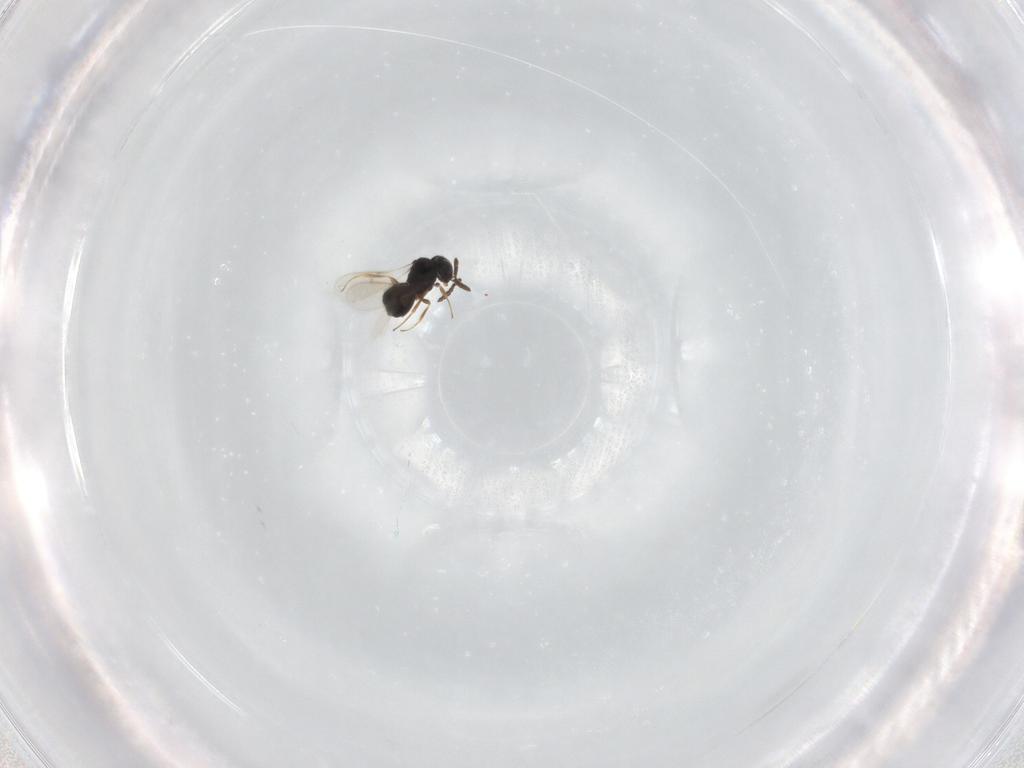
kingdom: Animalia
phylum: Arthropoda
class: Insecta
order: Hymenoptera
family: Scelionidae
